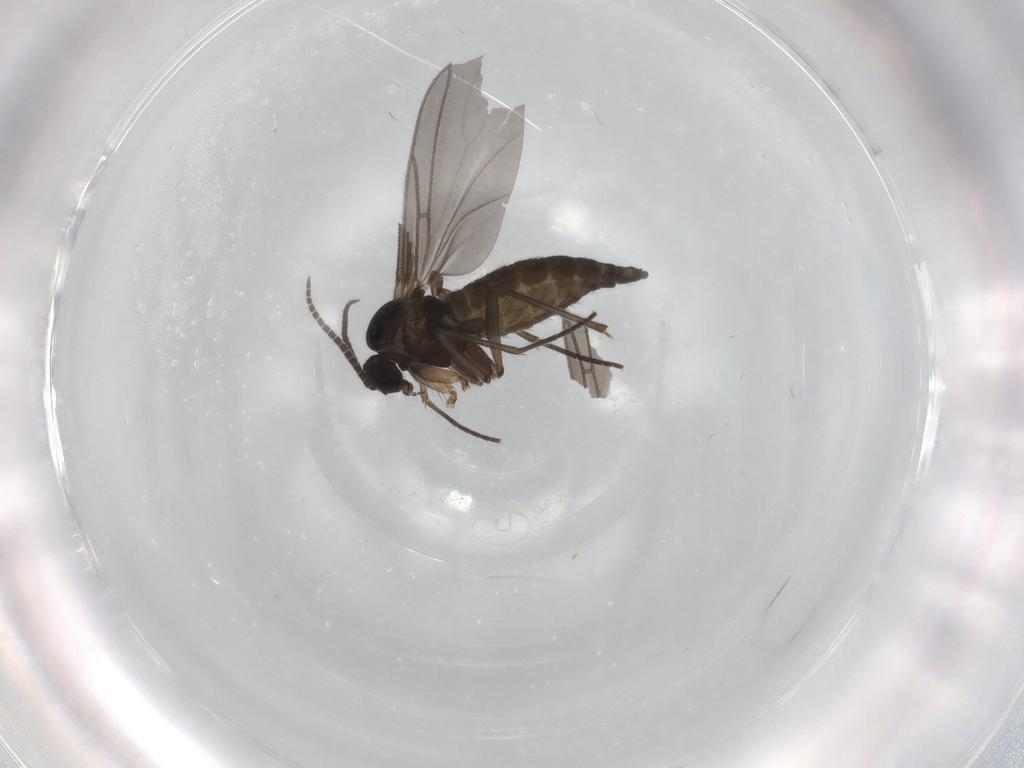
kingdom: Animalia
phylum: Arthropoda
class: Insecta
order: Diptera
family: Sciaridae
